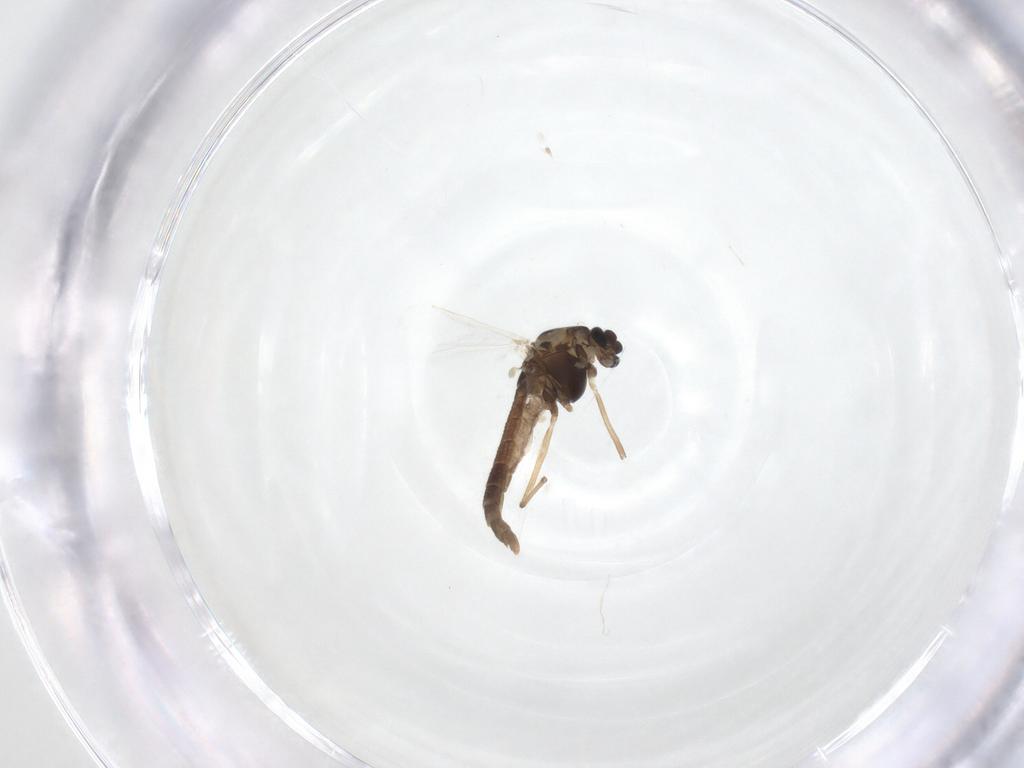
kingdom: Animalia
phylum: Arthropoda
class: Insecta
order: Diptera
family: Chironomidae
